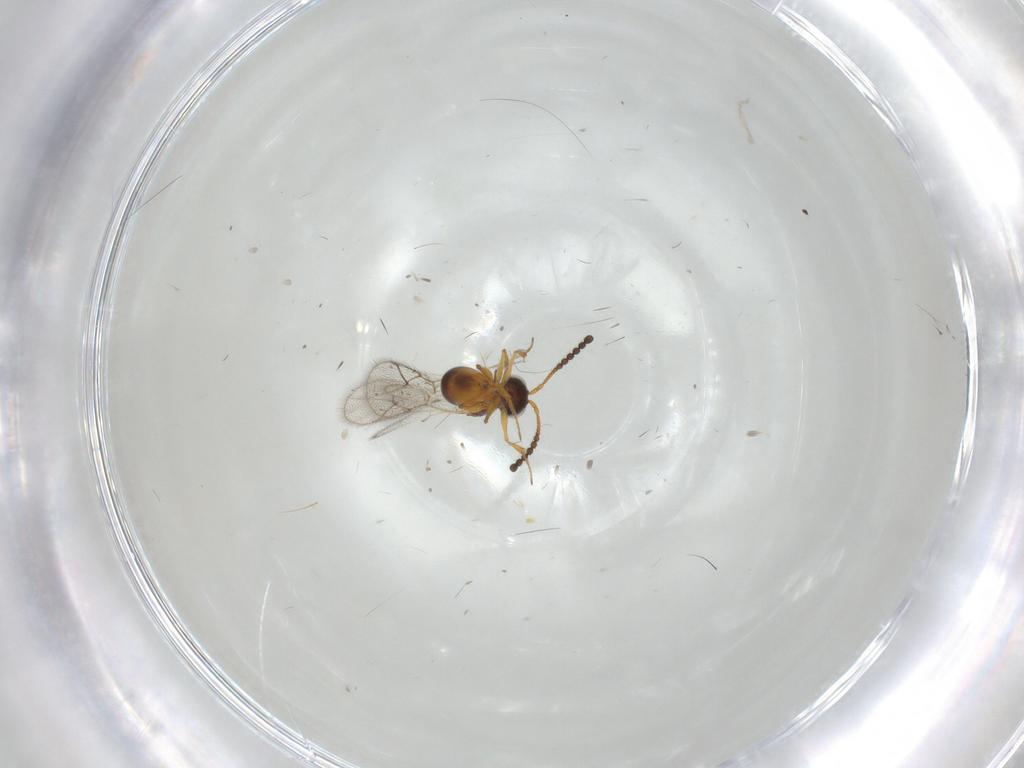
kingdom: Animalia
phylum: Arthropoda
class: Insecta
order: Hymenoptera
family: Figitidae
